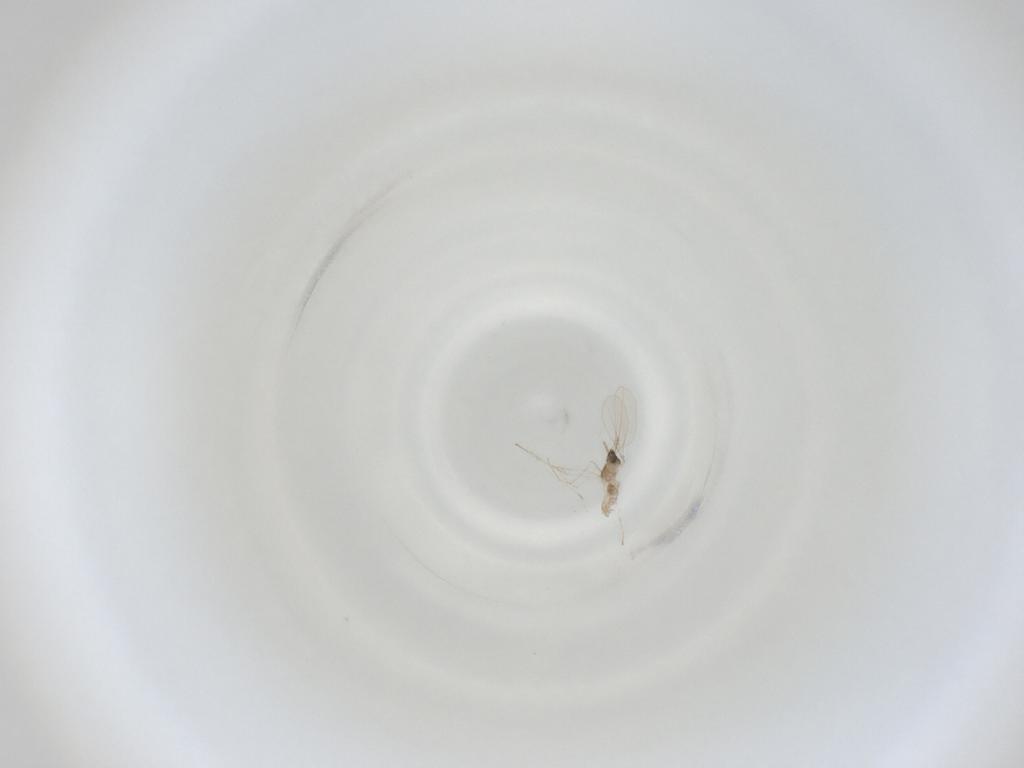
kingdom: Animalia
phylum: Arthropoda
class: Insecta
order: Diptera
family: Cecidomyiidae
